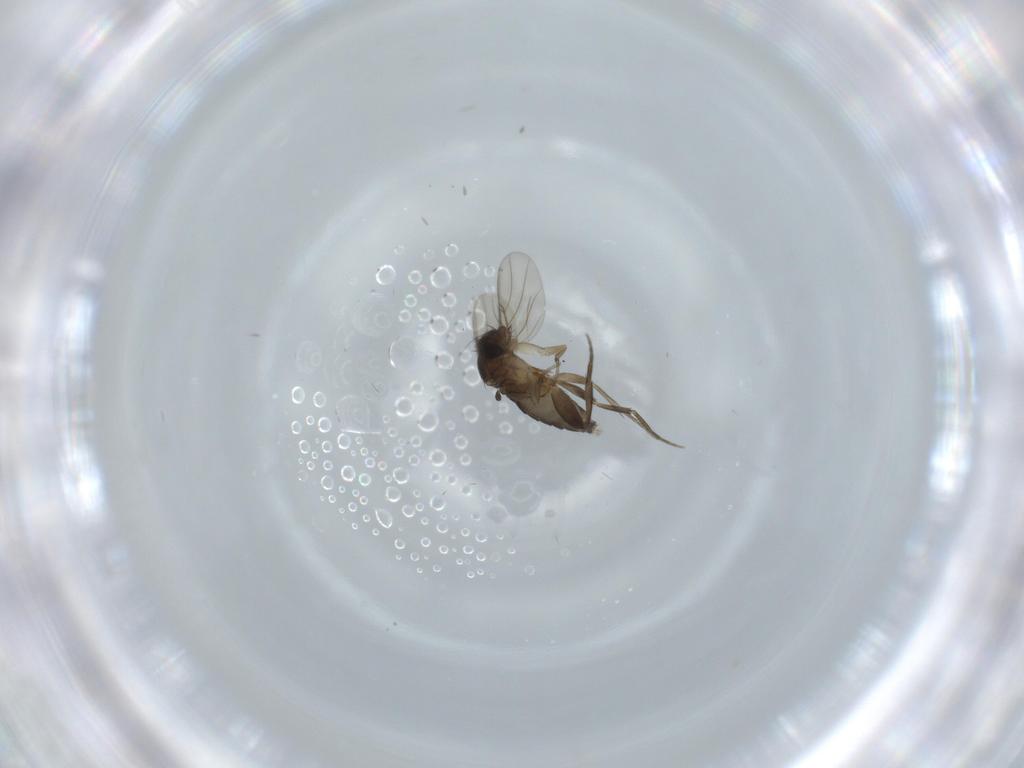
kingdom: Animalia
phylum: Arthropoda
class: Insecta
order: Diptera
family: Phoridae
